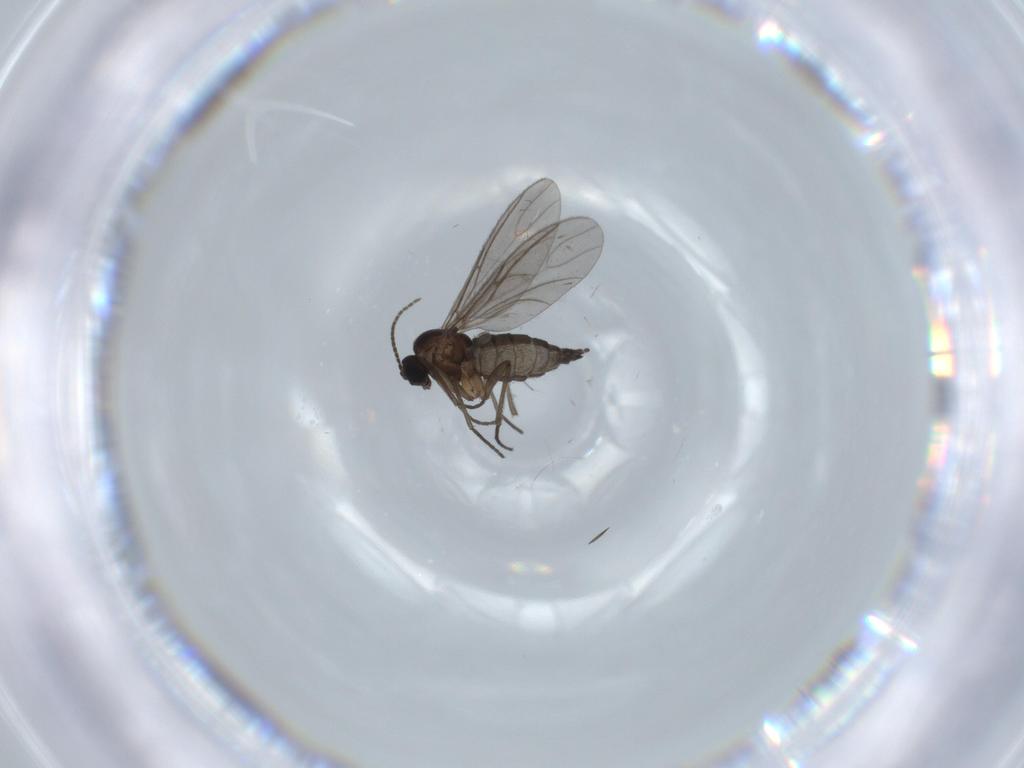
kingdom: Animalia
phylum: Arthropoda
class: Insecta
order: Diptera
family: Sciaridae
